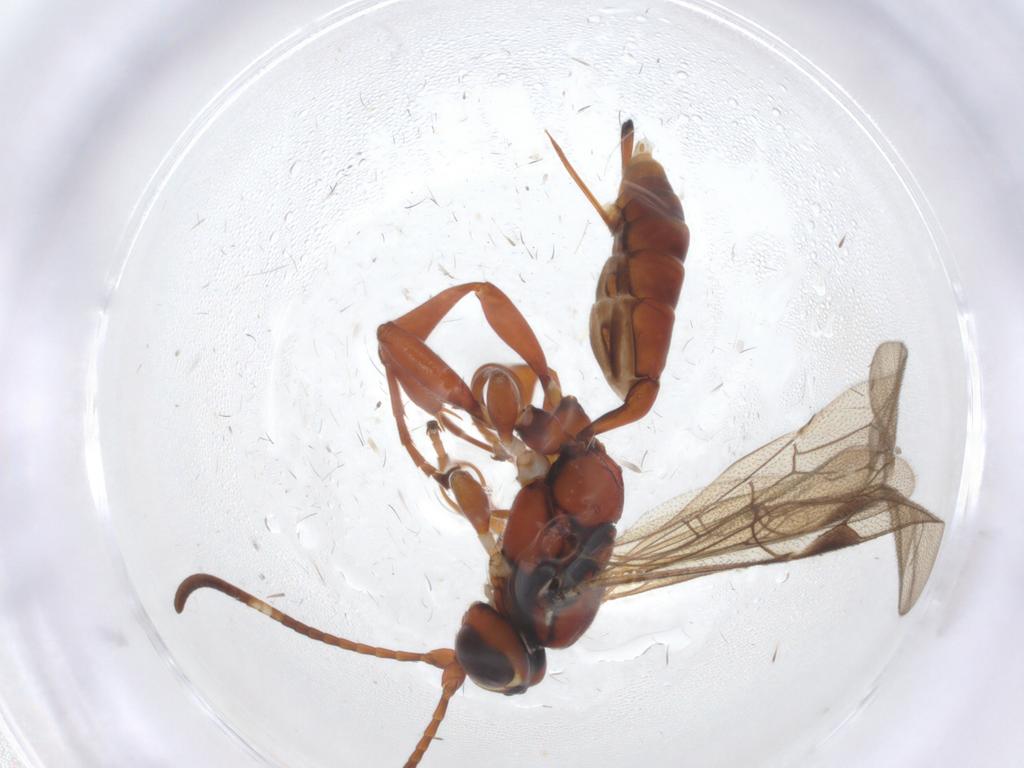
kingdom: Animalia
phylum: Arthropoda
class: Insecta
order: Hymenoptera
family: Ichneumonidae
